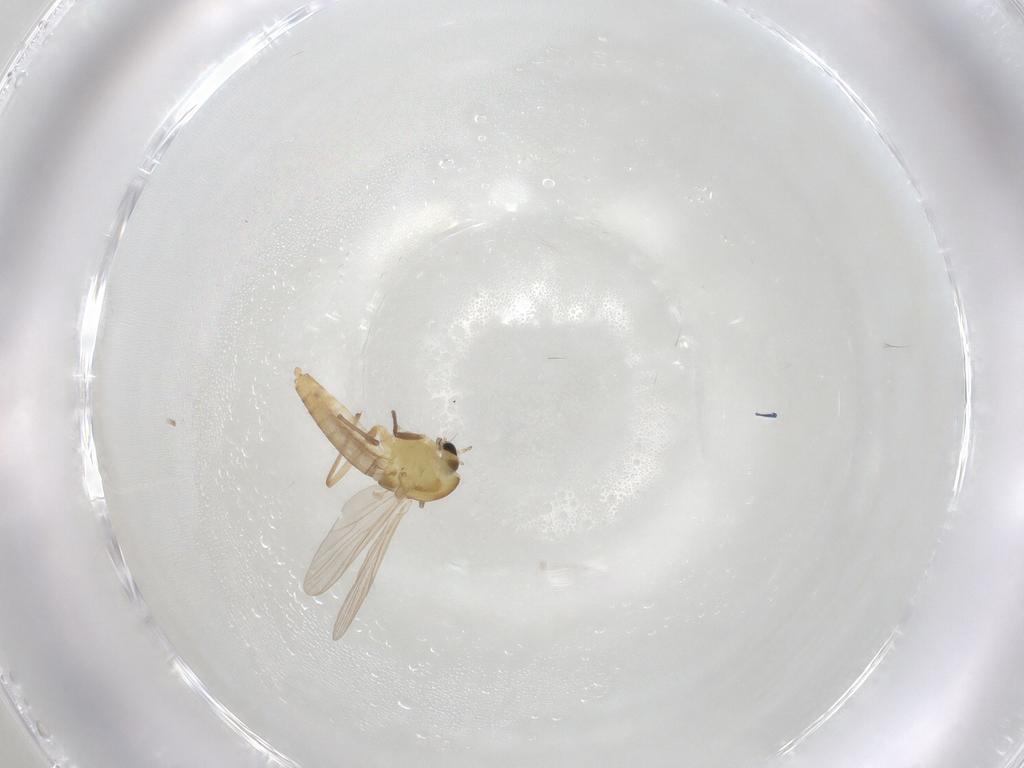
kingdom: Animalia
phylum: Arthropoda
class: Insecta
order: Diptera
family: Chironomidae
